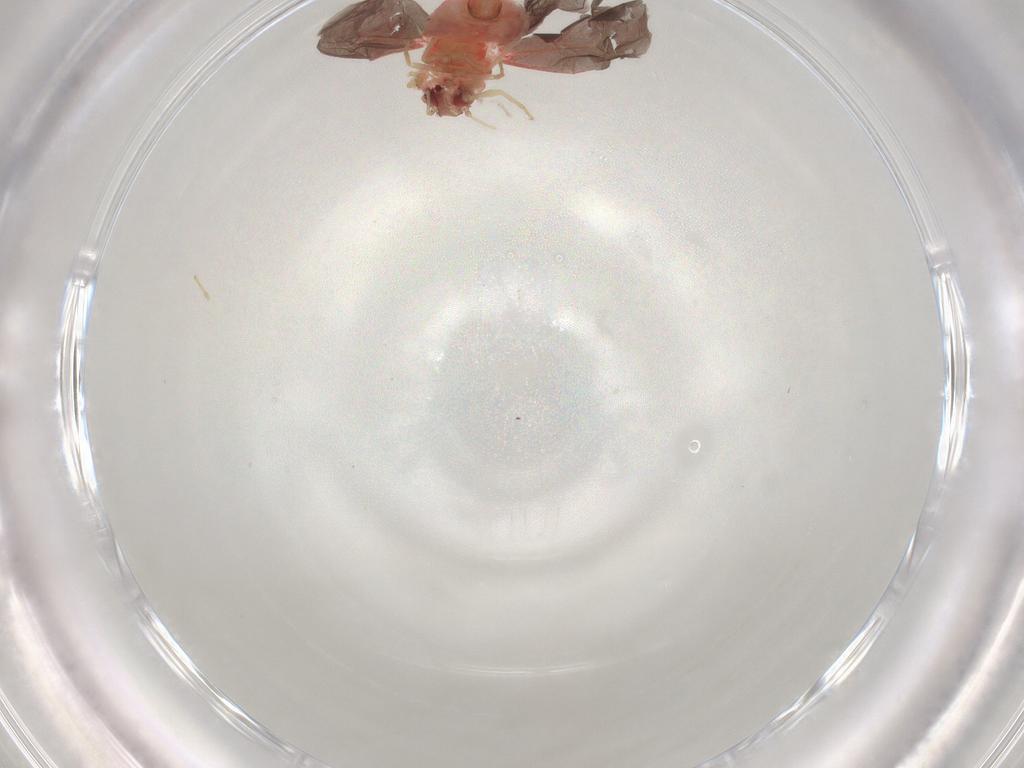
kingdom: Animalia
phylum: Arthropoda
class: Insecta
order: Hemiptera
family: Aleyrodidae
